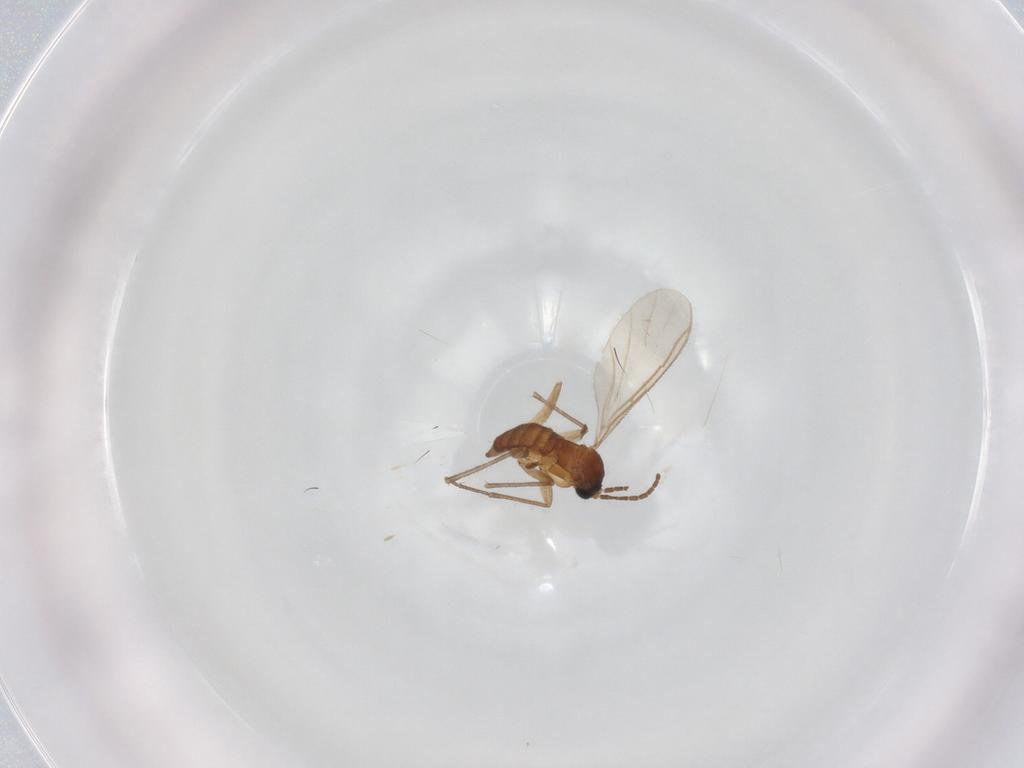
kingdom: Animalia
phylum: Arthropoda
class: Insecta
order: Diptera
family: Sciaridae
